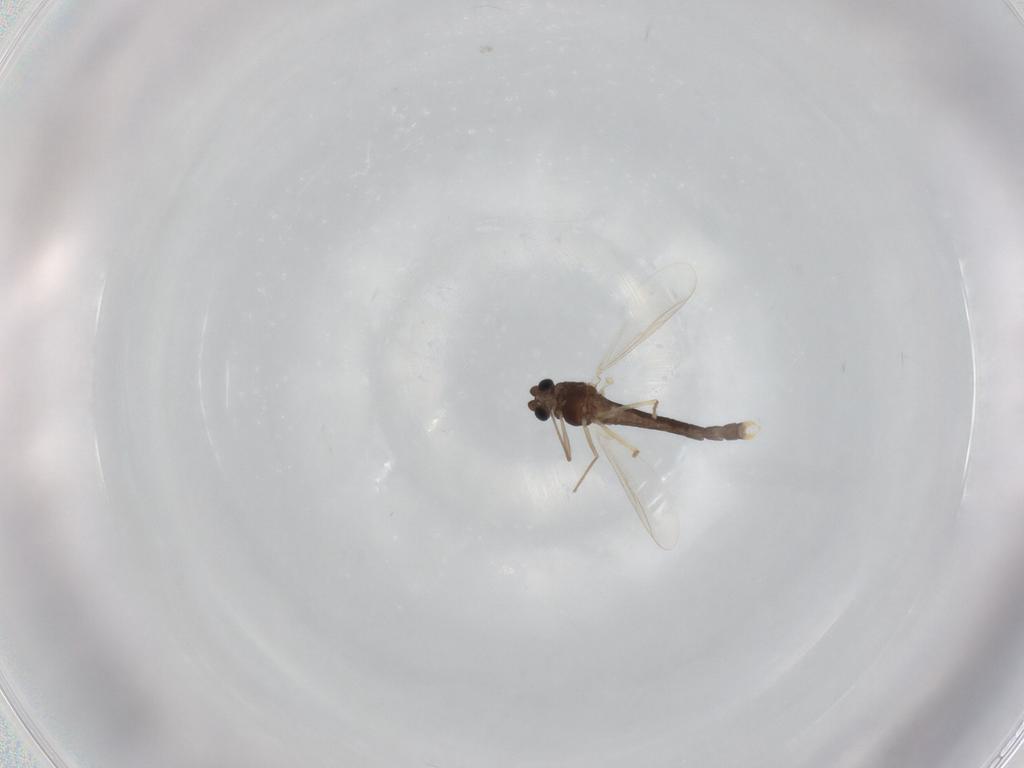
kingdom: Animalia
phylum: Arthropoda
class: Insecta
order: Diptera
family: Chironomidae
